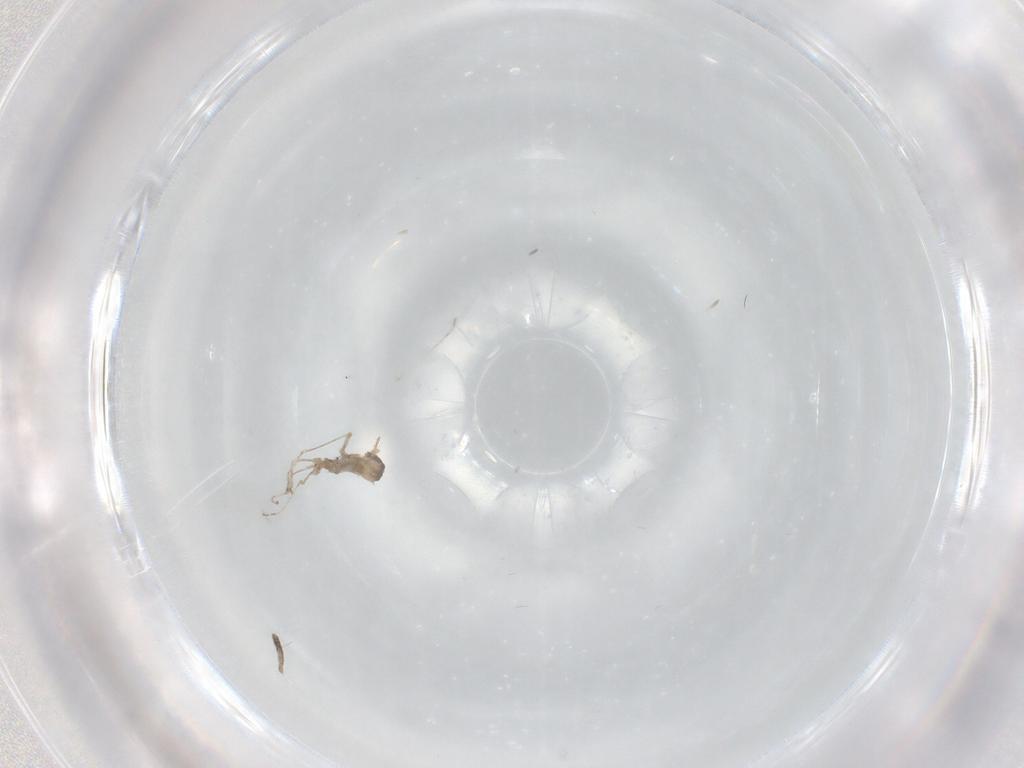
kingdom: Animalia
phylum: Arthropoda
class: Insecta
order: Diptera
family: Cecidomyiidae
